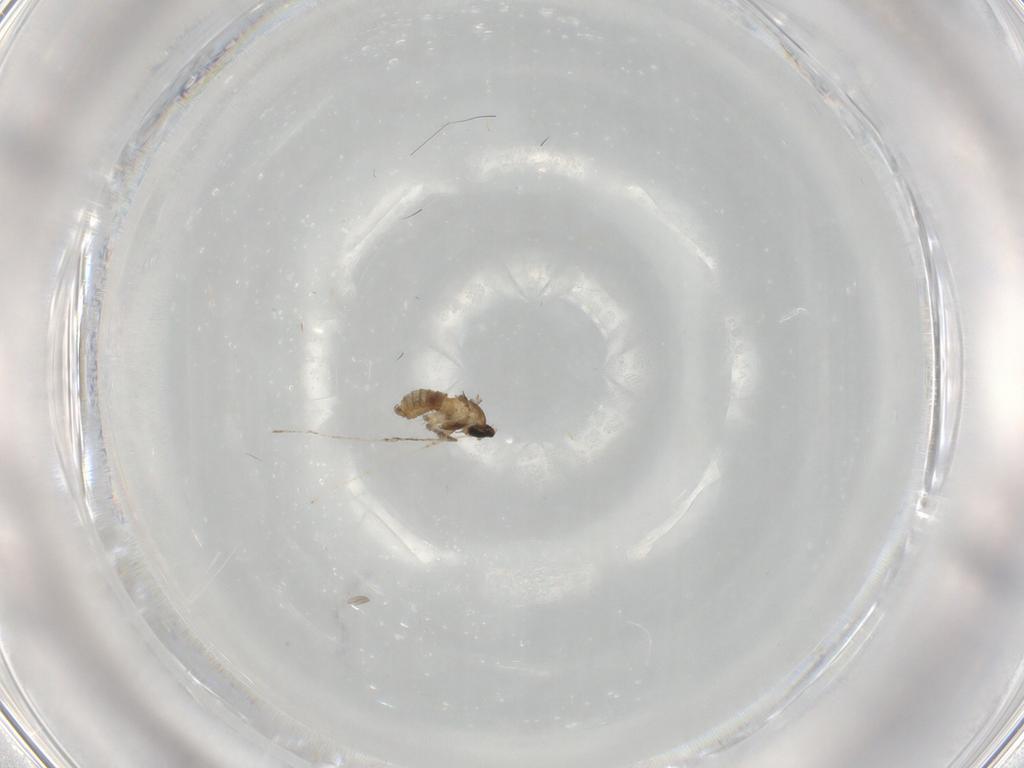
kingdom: Animalia
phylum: Arthropoda
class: Insecta
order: Diptera
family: Cecidomyiidae
